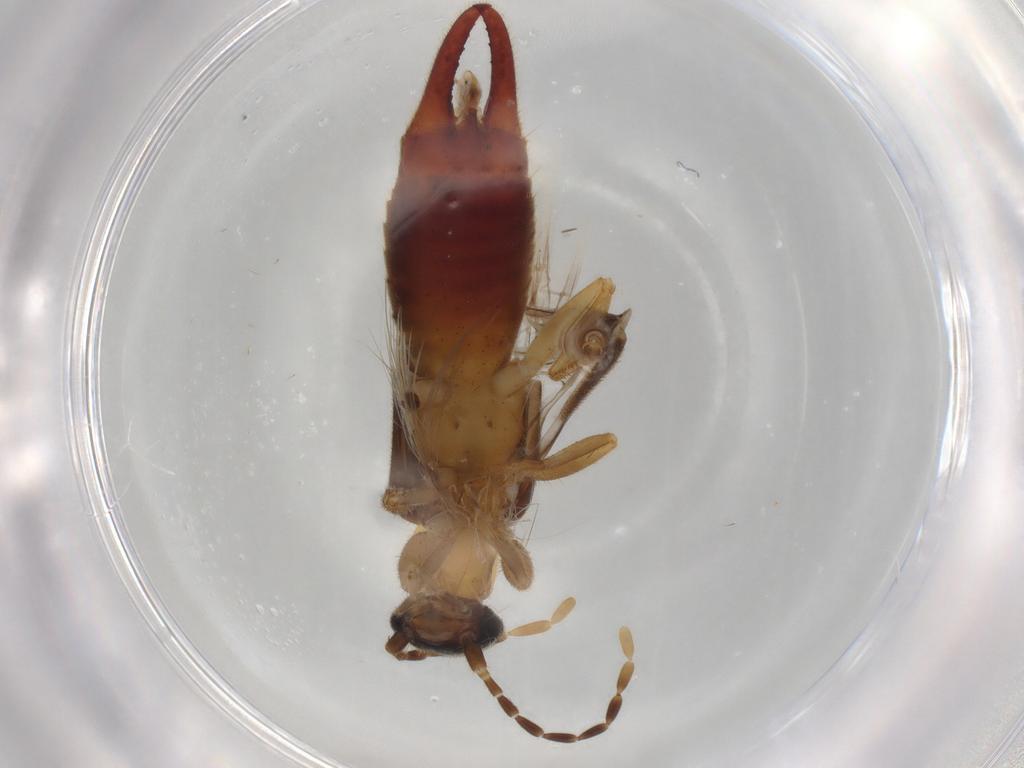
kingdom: Animalia
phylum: Arthropoda
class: Insecta
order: Dermaptera
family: Spongiphoridae
